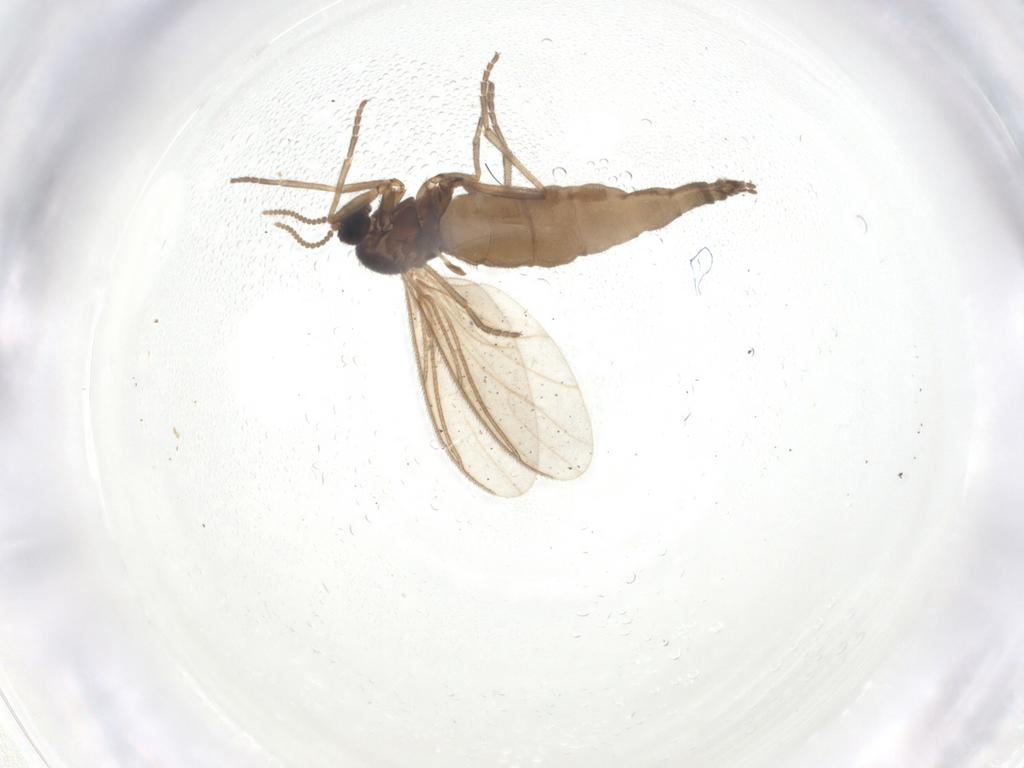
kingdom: Animalia
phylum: Arthropoda
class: Insecta
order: Diptera
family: Sciaridae
